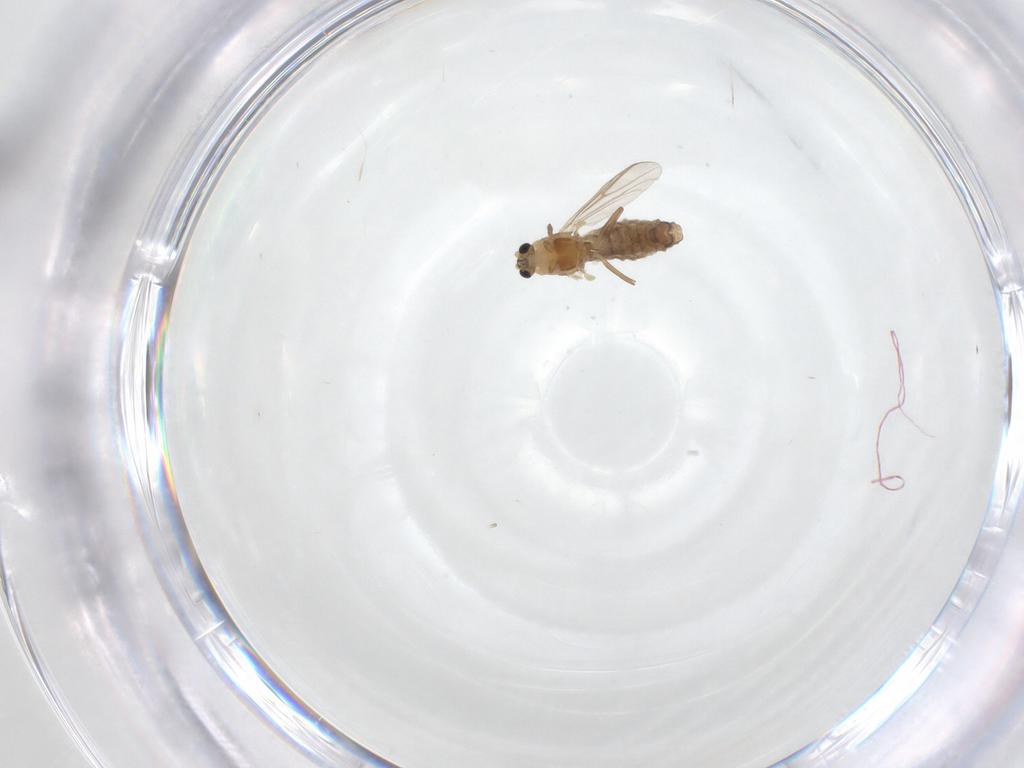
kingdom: Animalia
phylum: Arthropoda
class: Insecta
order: Diptera
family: Chironomidae
